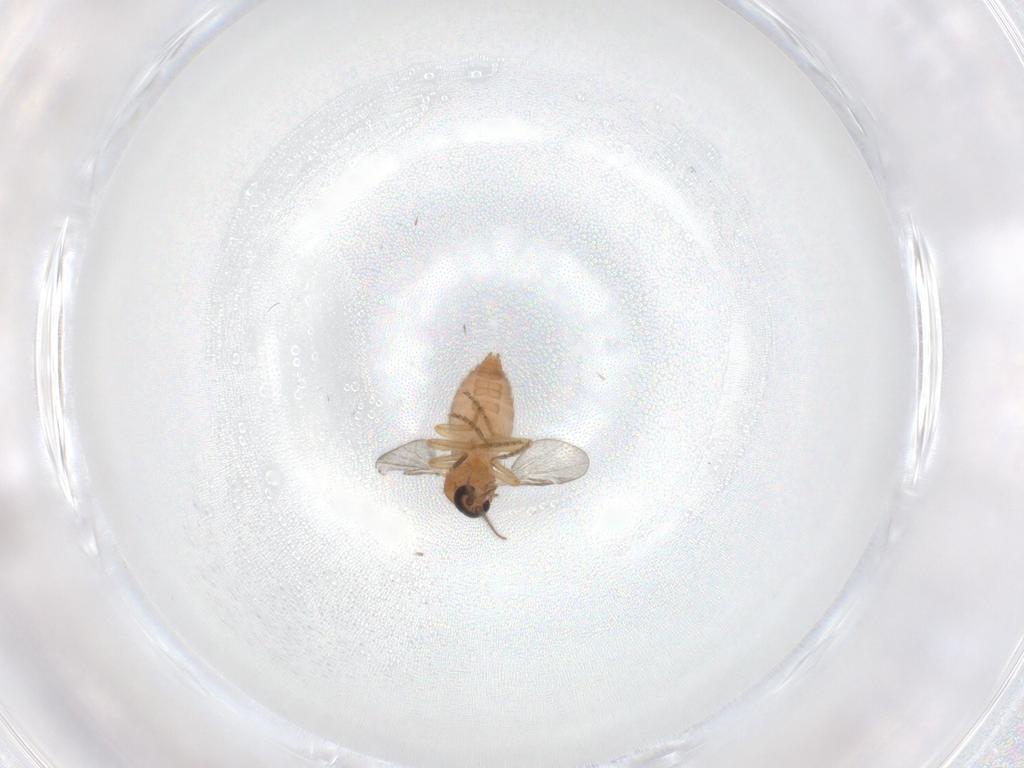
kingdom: Animalia
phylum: Arthropoda
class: Insecta
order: Diptera
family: Ceratopogonidae
